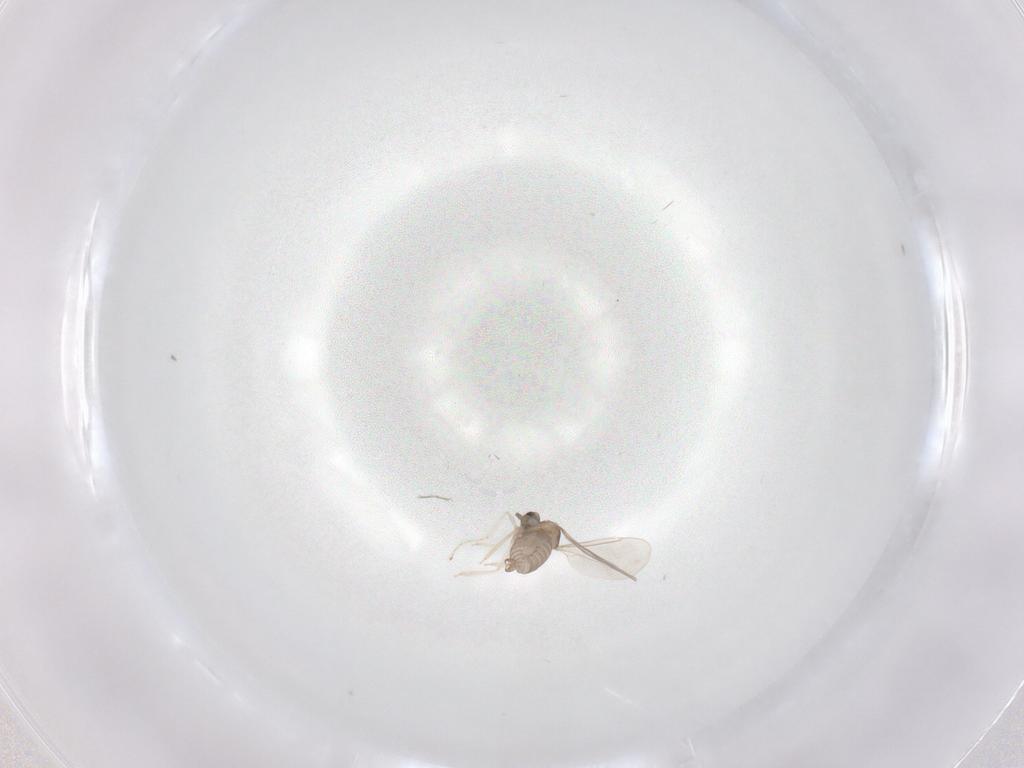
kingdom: Animalia
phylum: Arthropoda
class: Insecta
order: Diptera
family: Cecidomyiidae
